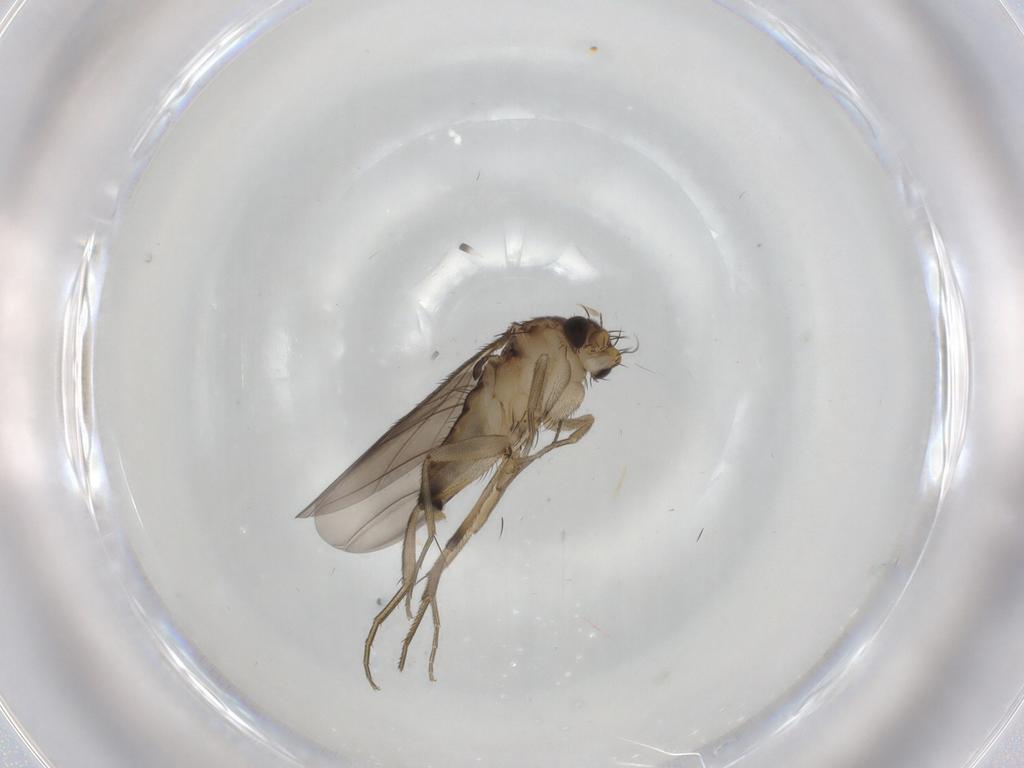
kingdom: Animalia
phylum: Arthropoda
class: Insecta
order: Diptera
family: Phoridae
